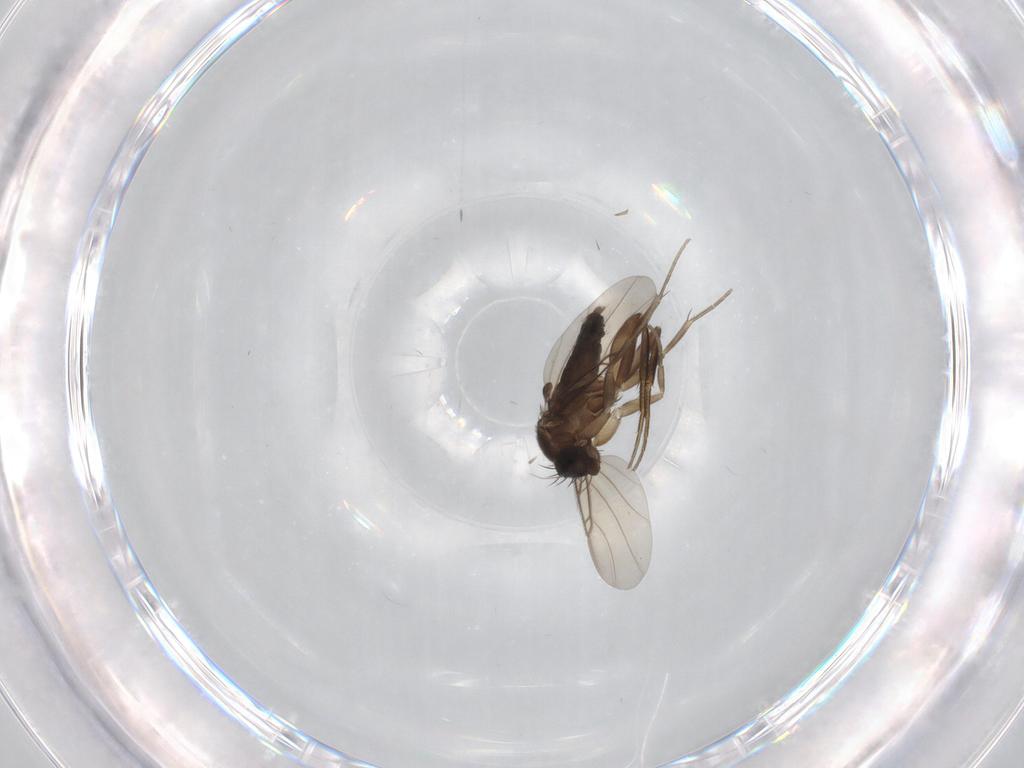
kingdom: Animalia
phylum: Arthropoda
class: Insecta
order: Diptera
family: Phoridae
